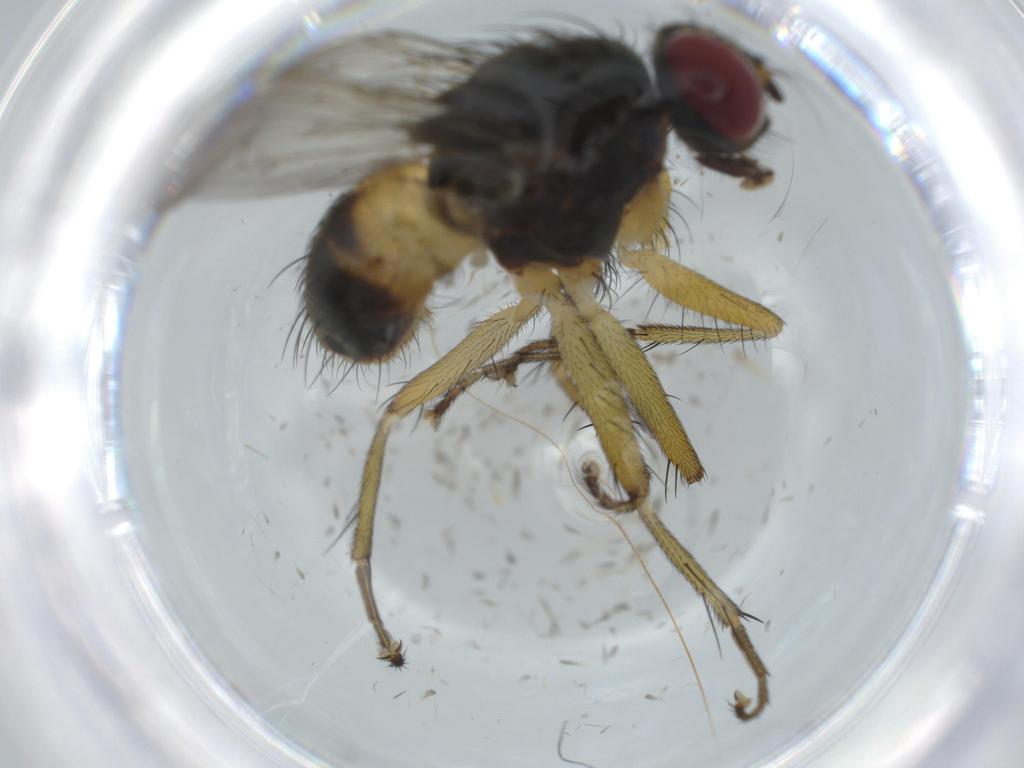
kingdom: Animalia
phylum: Arthropoda
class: Insecta
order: Diptera
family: Muscidae
